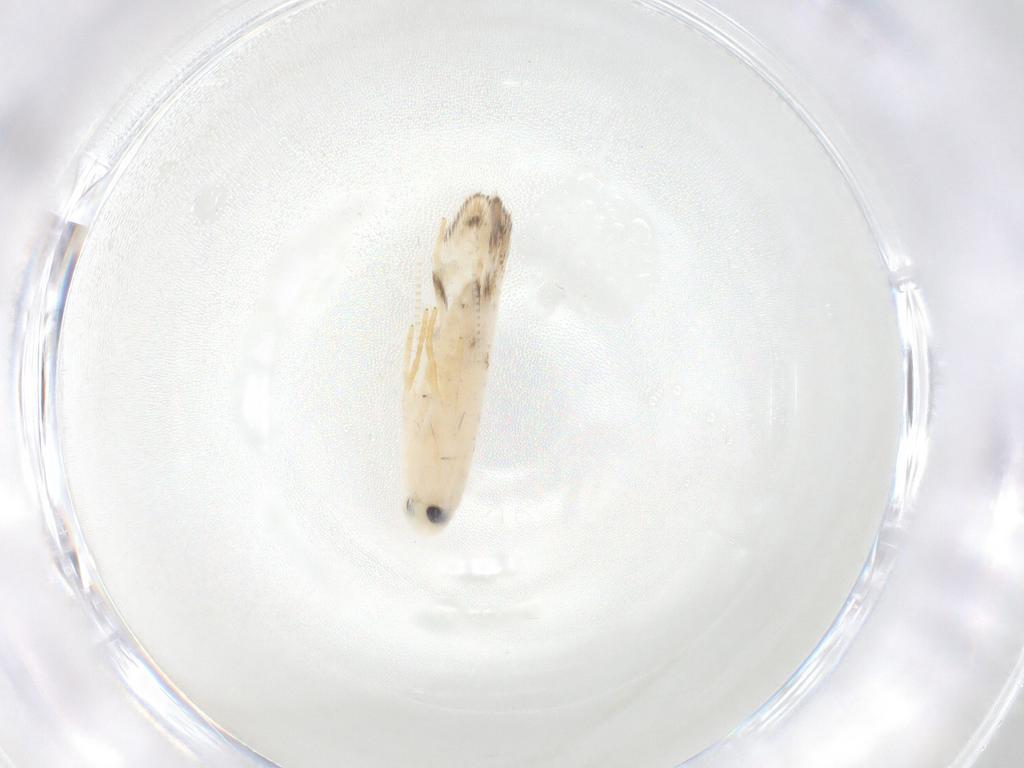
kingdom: Animalia
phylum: Arthropoda
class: Insecta
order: Lepidoptera
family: Geometridae
